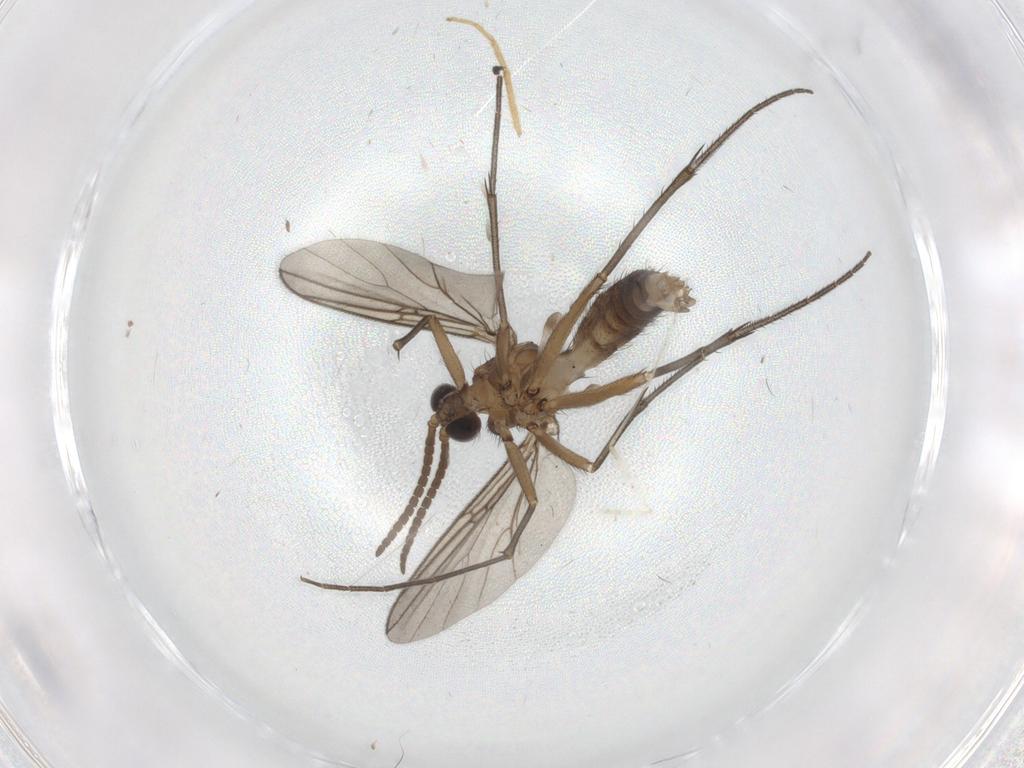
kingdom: Animalia
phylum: Arthropoda
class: Insecta
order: Diptera
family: Mycetophilidae
